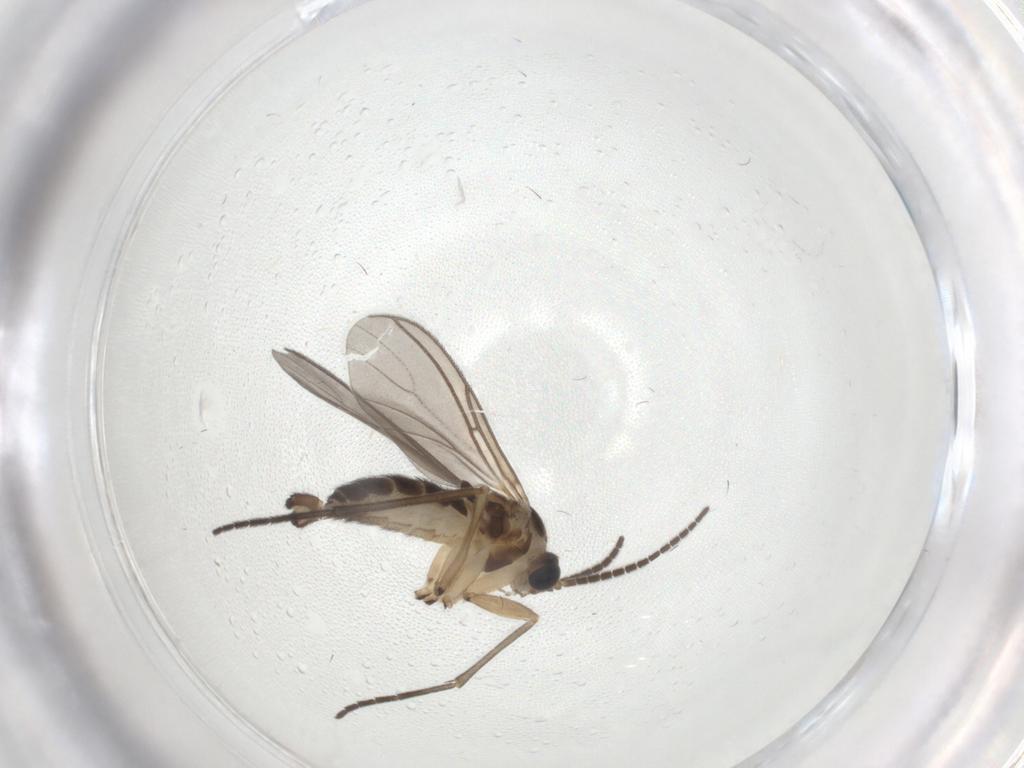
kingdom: Animalia
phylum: Arthropoda
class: Insecta
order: Diptera
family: Sciaridae
